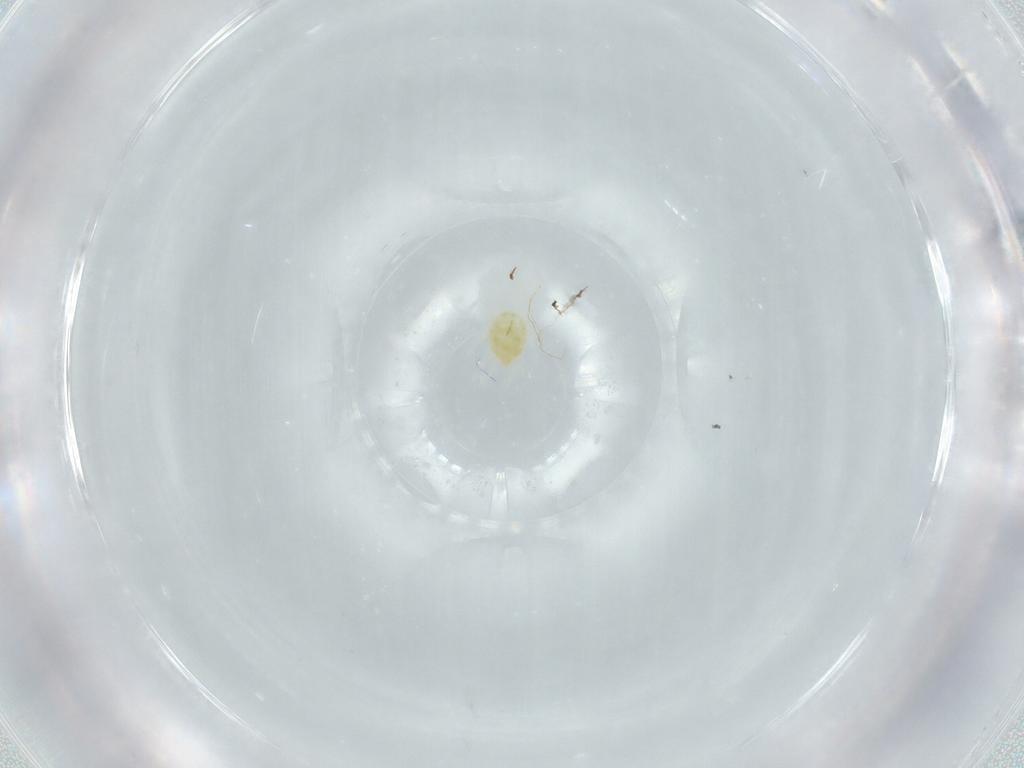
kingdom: Animalia
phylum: Arthropoda
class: Arachnida
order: Trombidiformes
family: Tetranychidae
